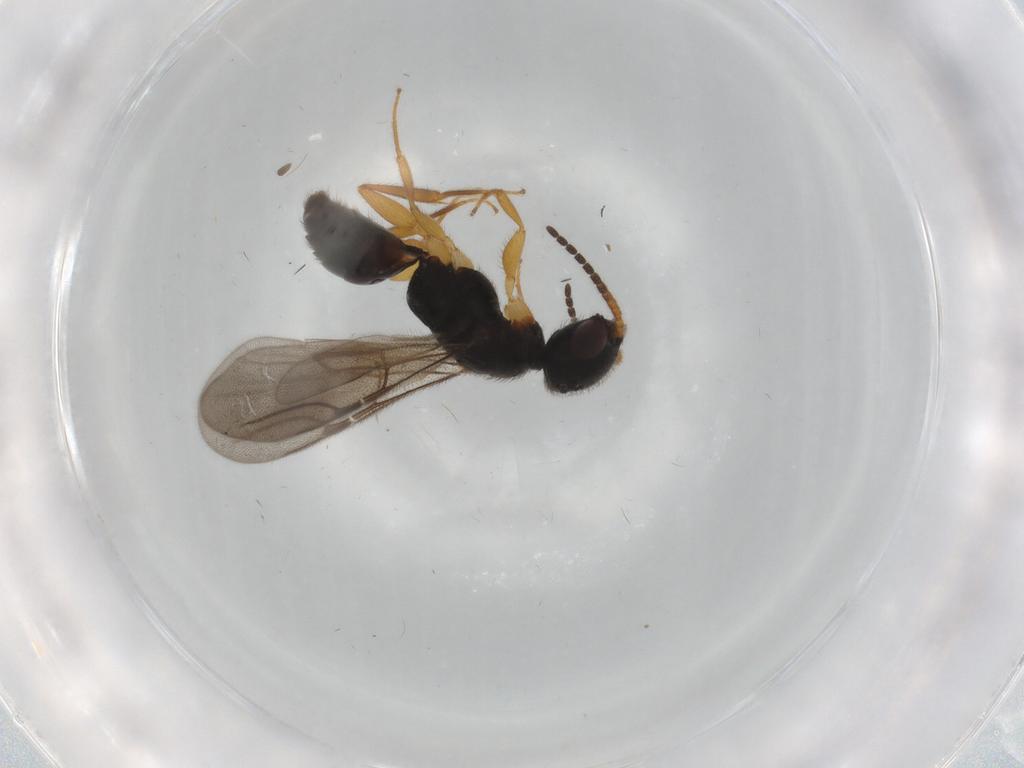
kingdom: Animalia
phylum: Arthropoda
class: Insecta
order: Hymenoptera
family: Bethylidae
